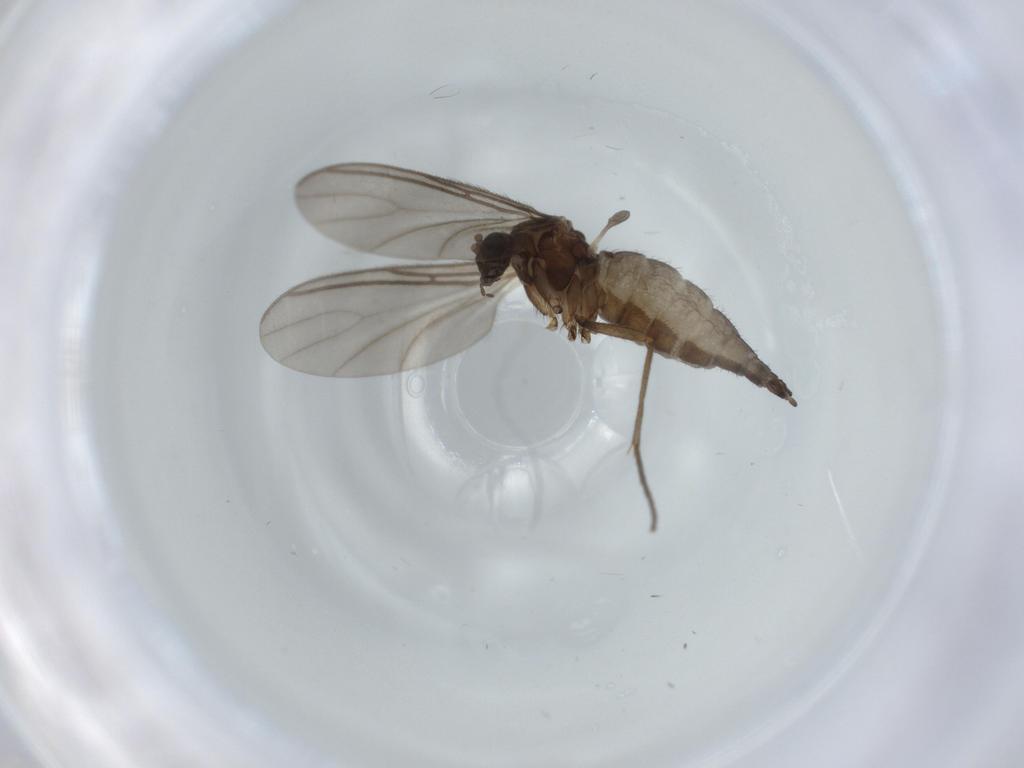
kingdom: Animalia
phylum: Arthropoda
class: Insecta
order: Diptera
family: Sciaridae
